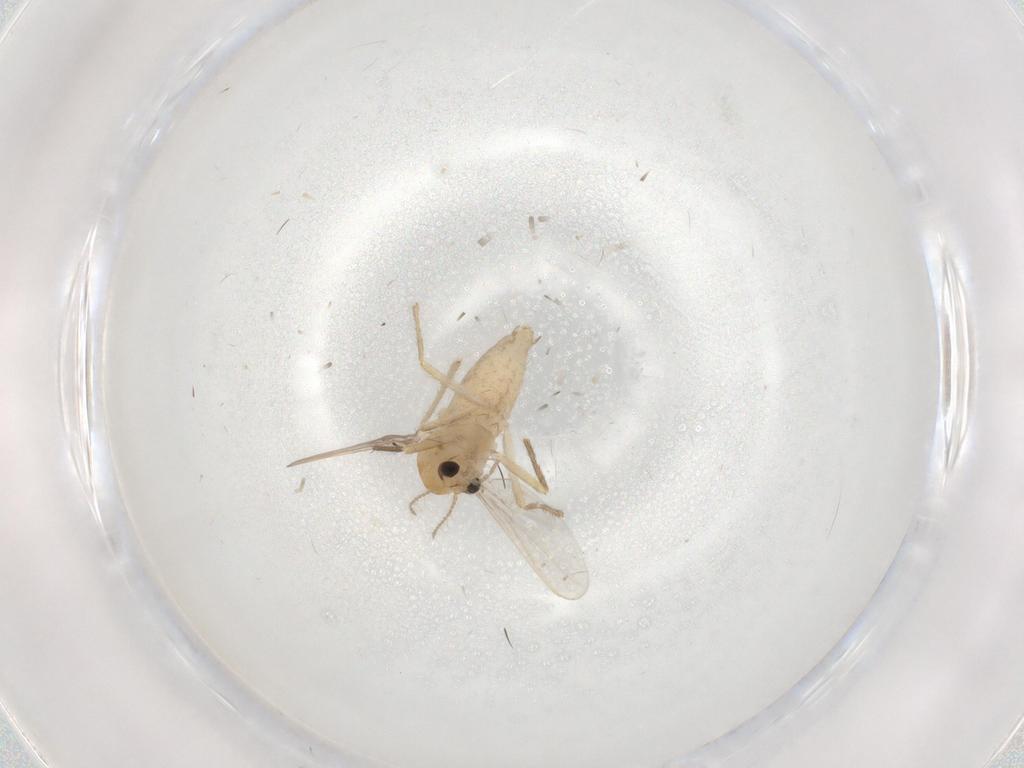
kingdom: Animalia
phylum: Arthropoda
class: Insecta
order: Diptera
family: Chironomidae
